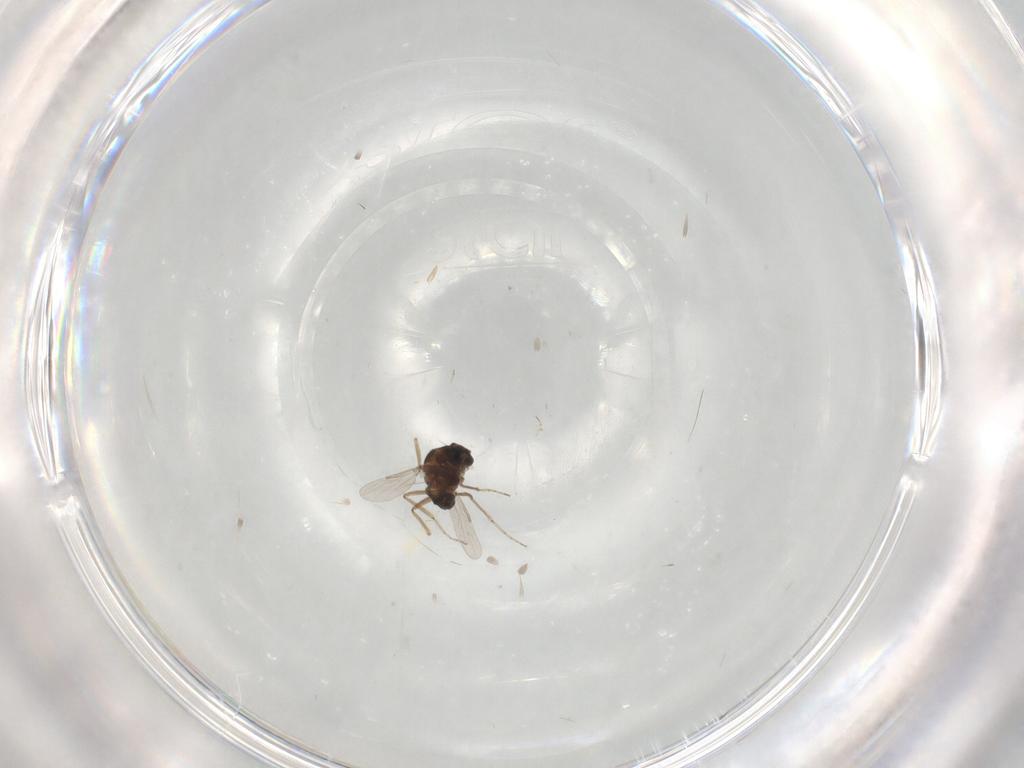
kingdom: Animalia
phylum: Arthropoda
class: Insecta
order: Diptera
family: Ceratopogonidae
